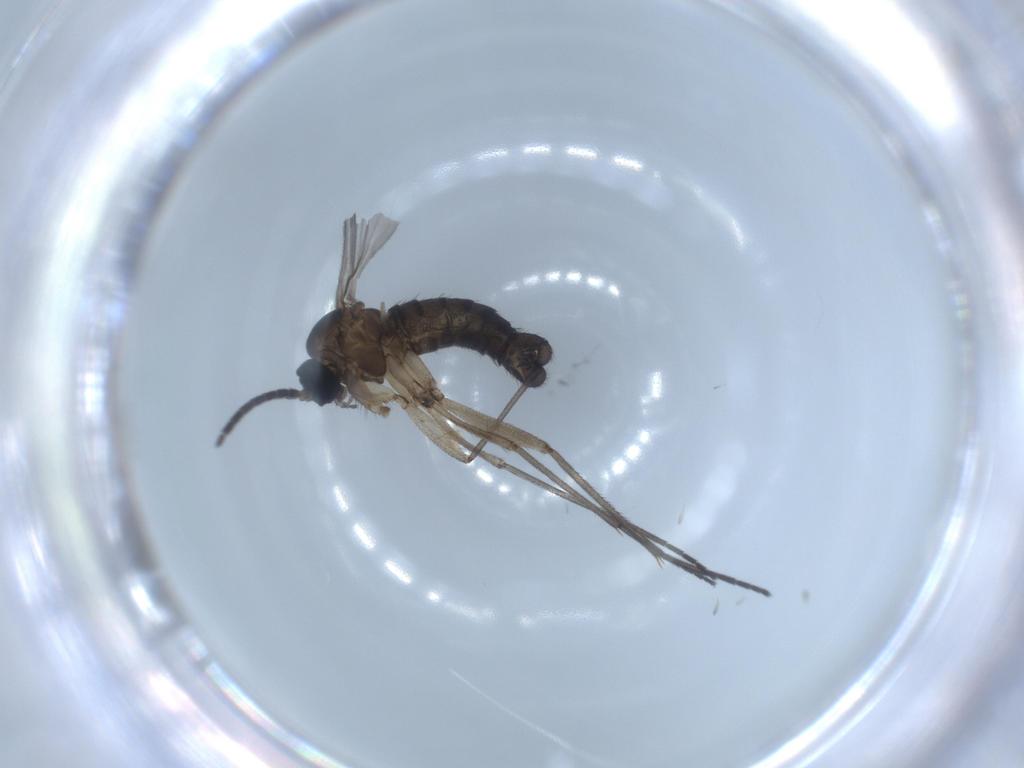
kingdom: Animalia
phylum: Arthropoda
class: Insecta
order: Diptera
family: Sciaridae
